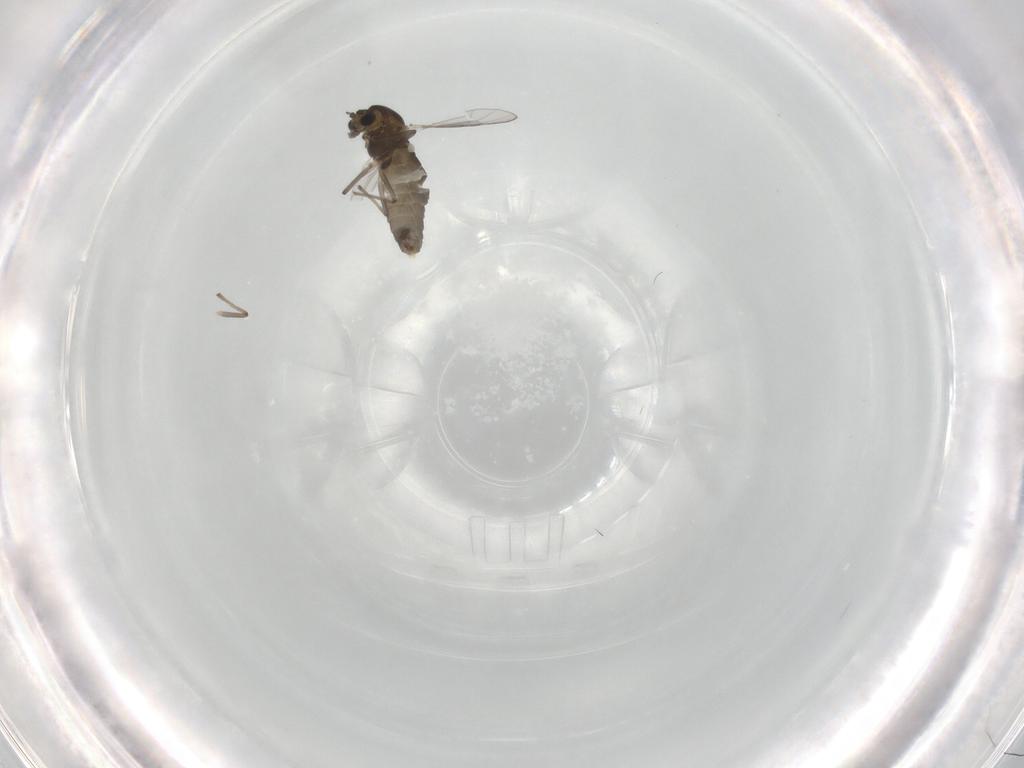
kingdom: Animalia
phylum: Arthropoda
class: Insecta
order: Diptera
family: Chironomidae
